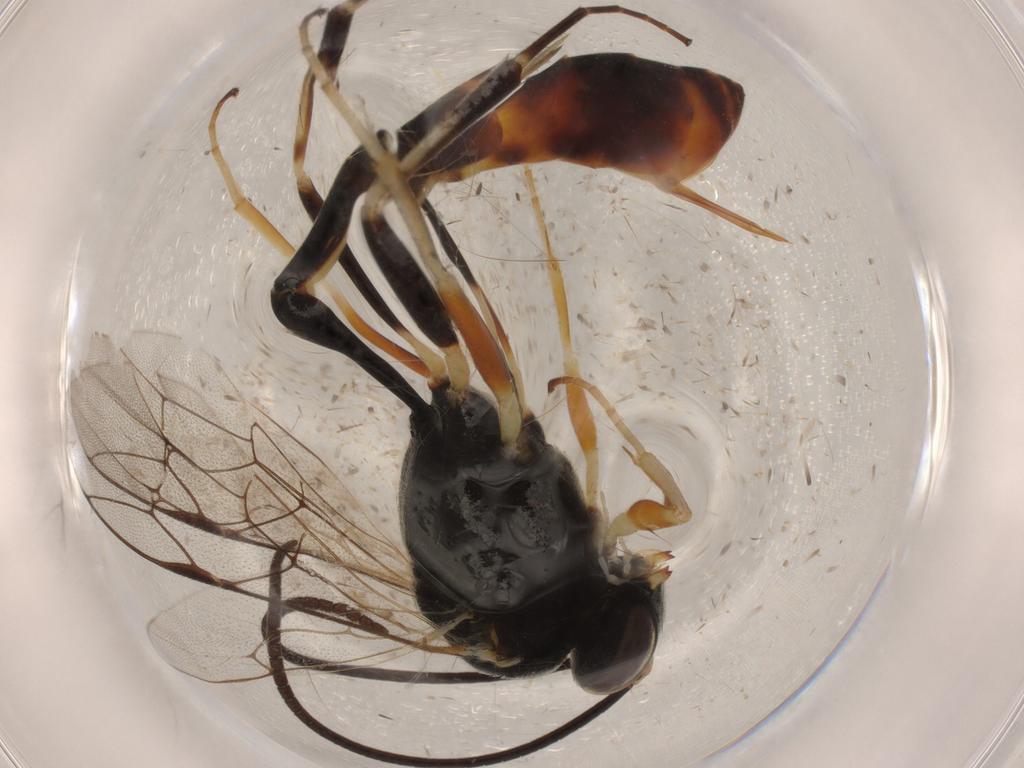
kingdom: Animalia
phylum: Arthropoda
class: Insecta
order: Hymenoptera
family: Ichneumonidae
